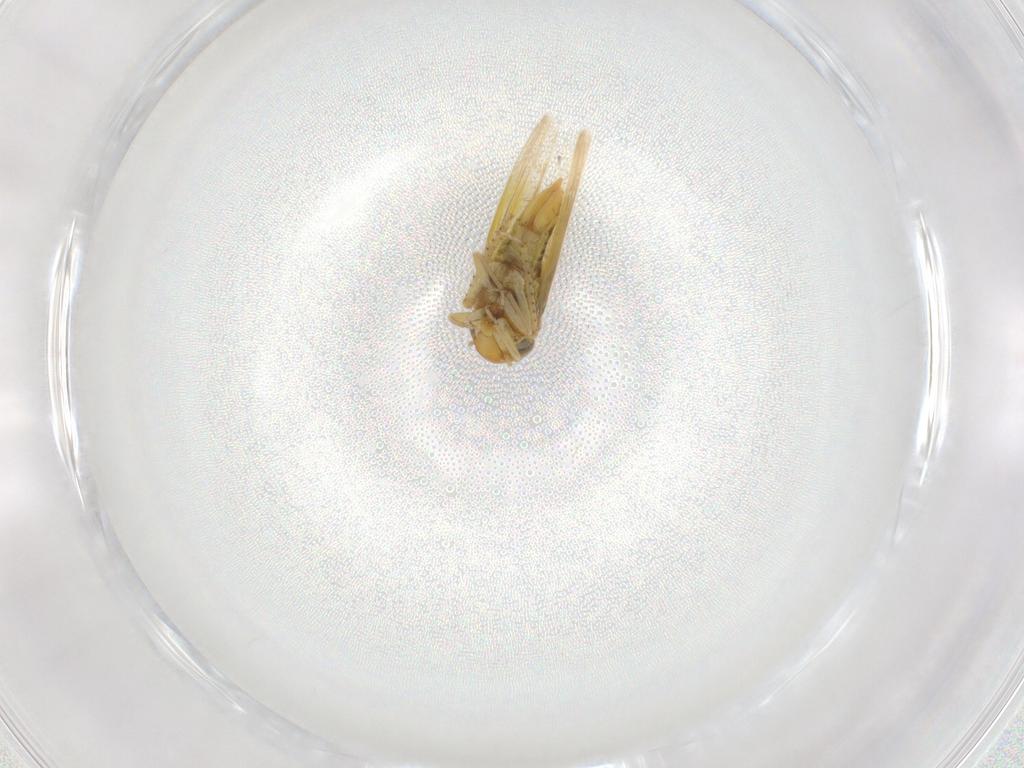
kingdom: Animalia
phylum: Arthropoda
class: Insecta
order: Hemiptera
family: Cicadellidae
